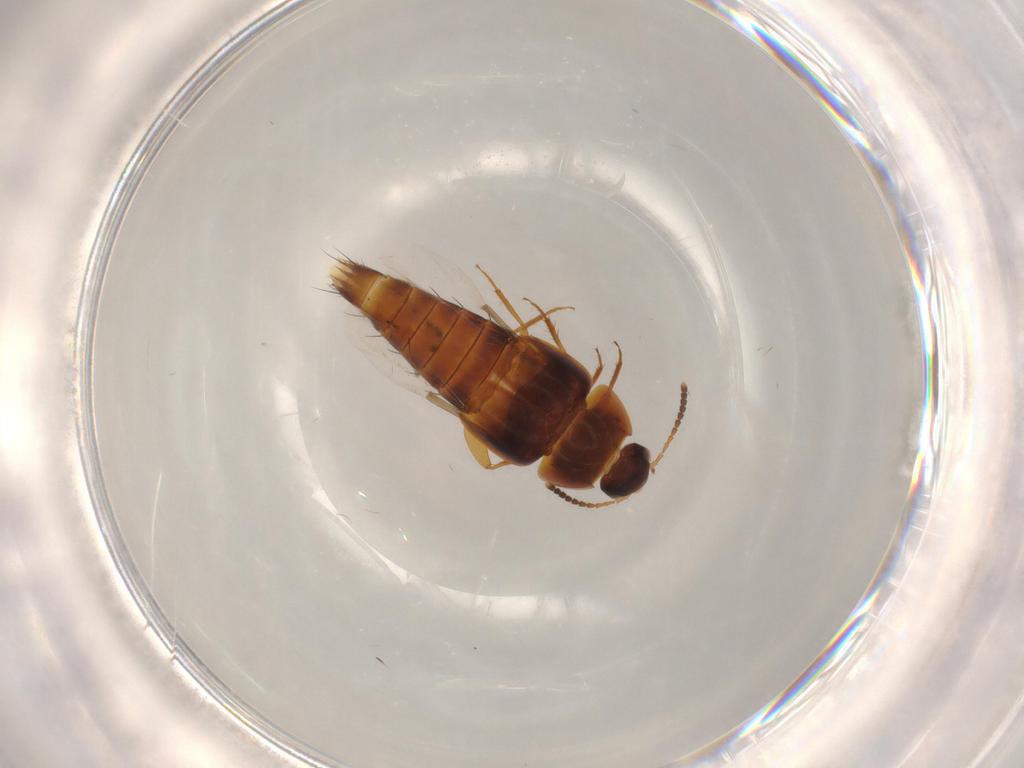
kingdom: Animalia
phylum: Arthropoda
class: Insecta
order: Coleoptera
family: Staphylinidae
